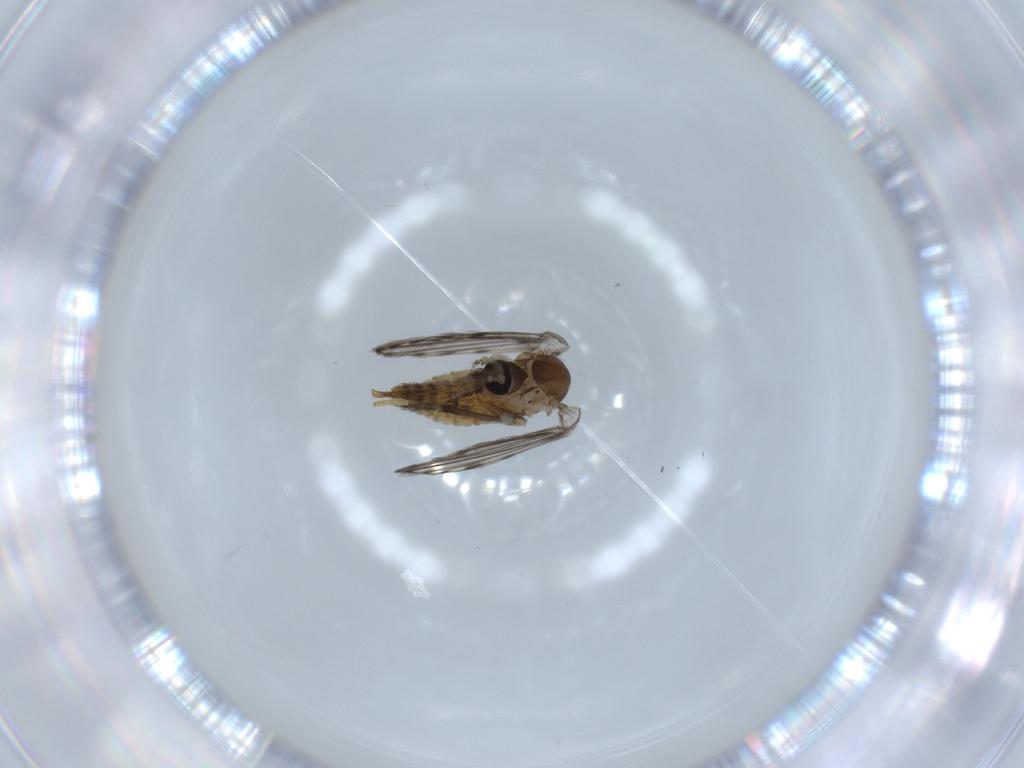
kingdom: Animalia
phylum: Arthropoda
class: Insecta
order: Diptera
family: Psychodidae
